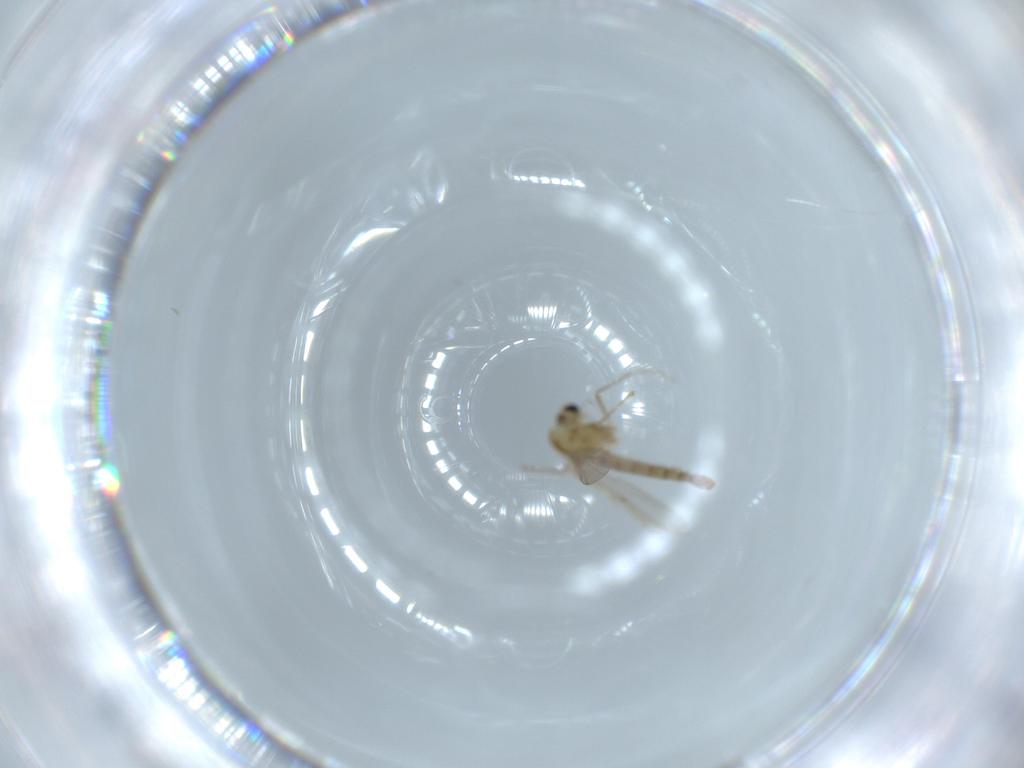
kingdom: Animalia
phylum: Arthropoda
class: Insecta
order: Diptera
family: Chironomidae
